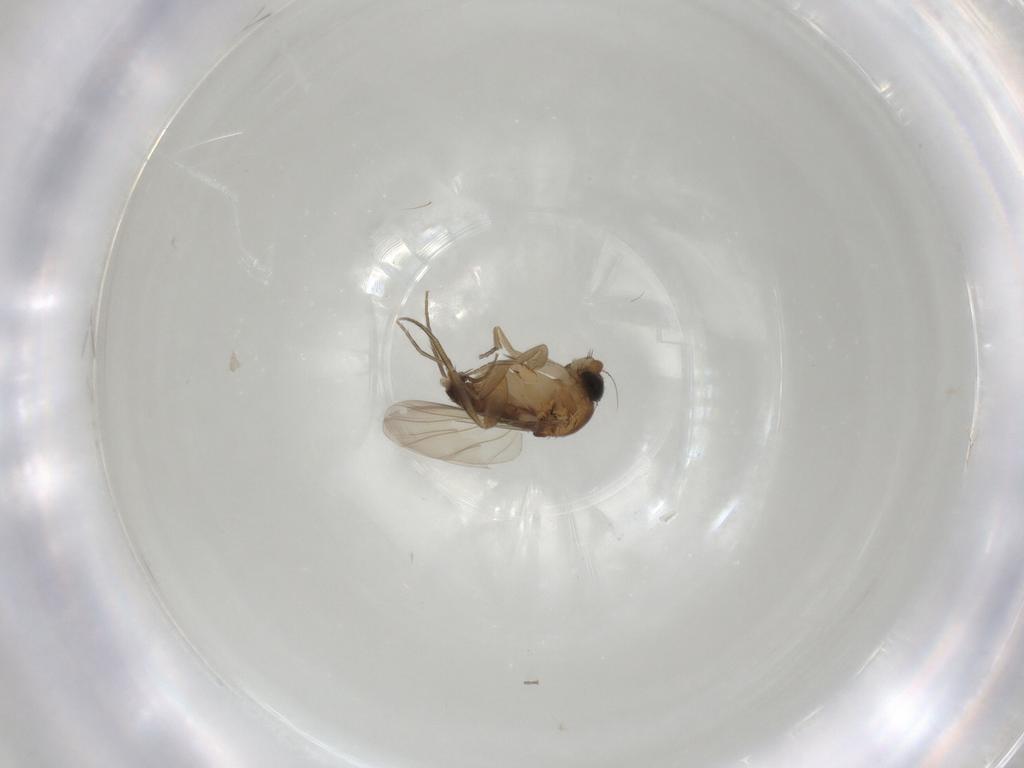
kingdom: Animalia
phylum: Arthropoda
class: Insecta
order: Diptera
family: Phoridae
